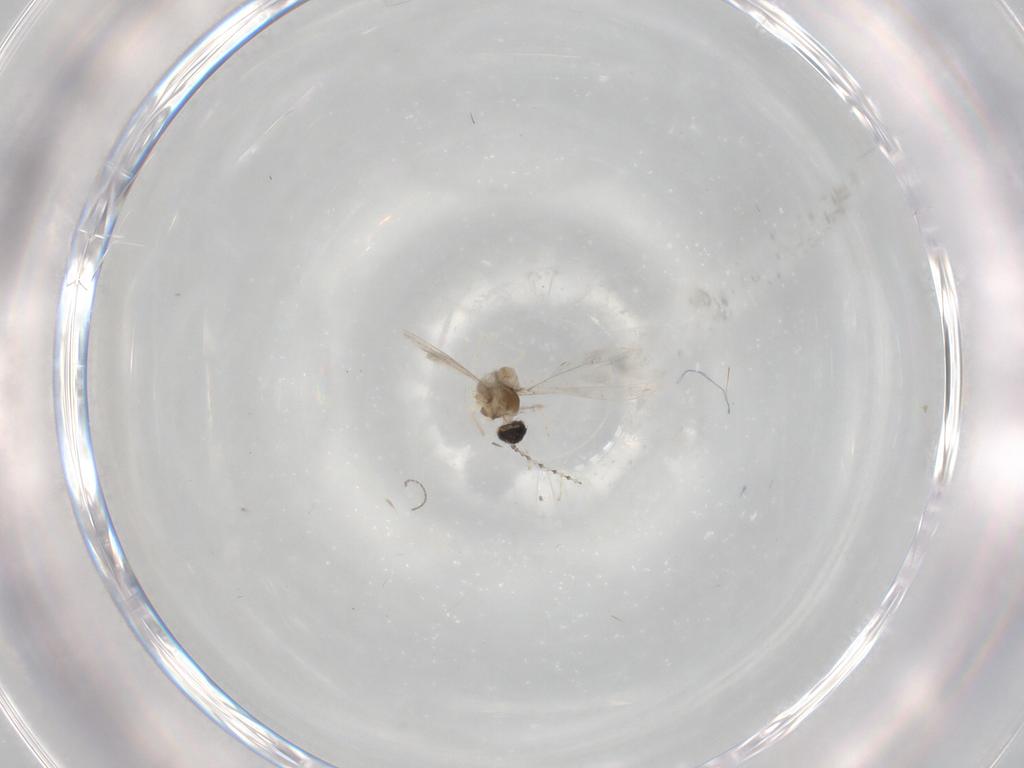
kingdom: Animalia
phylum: Arthropoda
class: Insecta
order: Diptera
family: Cecidomyiidae
